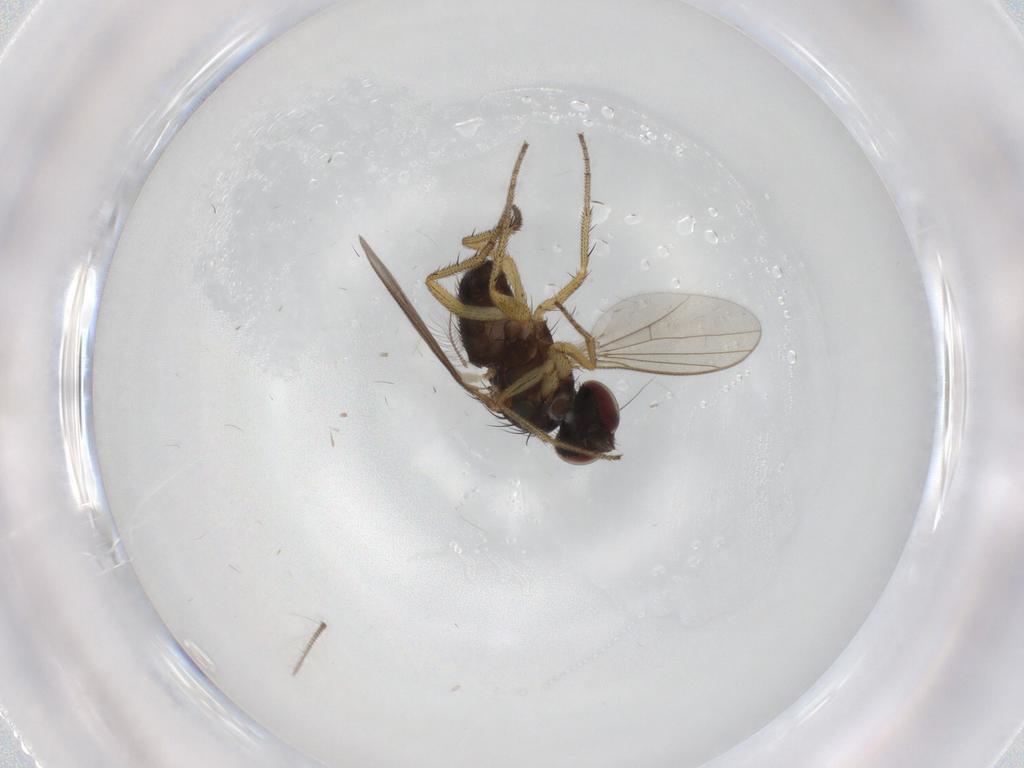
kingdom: Animalia
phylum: Arthropoda
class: Insecta
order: Diptera
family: Dolichopodidae
